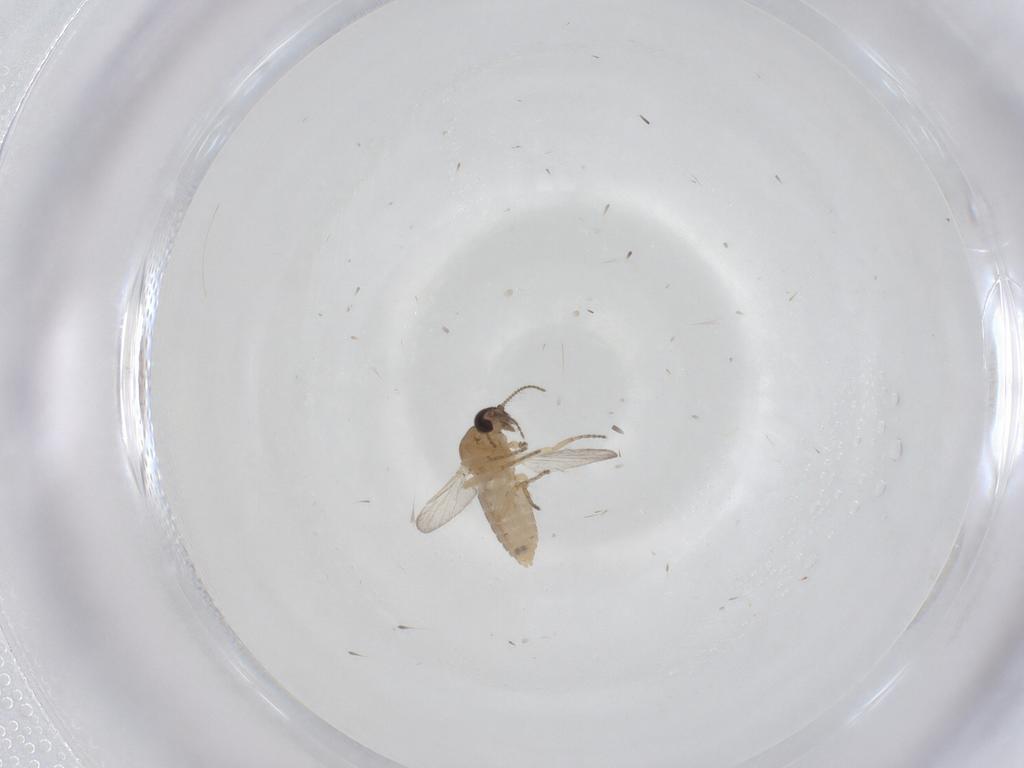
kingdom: Animalia
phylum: Arthropoda
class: Insecta
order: Diptera
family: Ceratopogonidae
